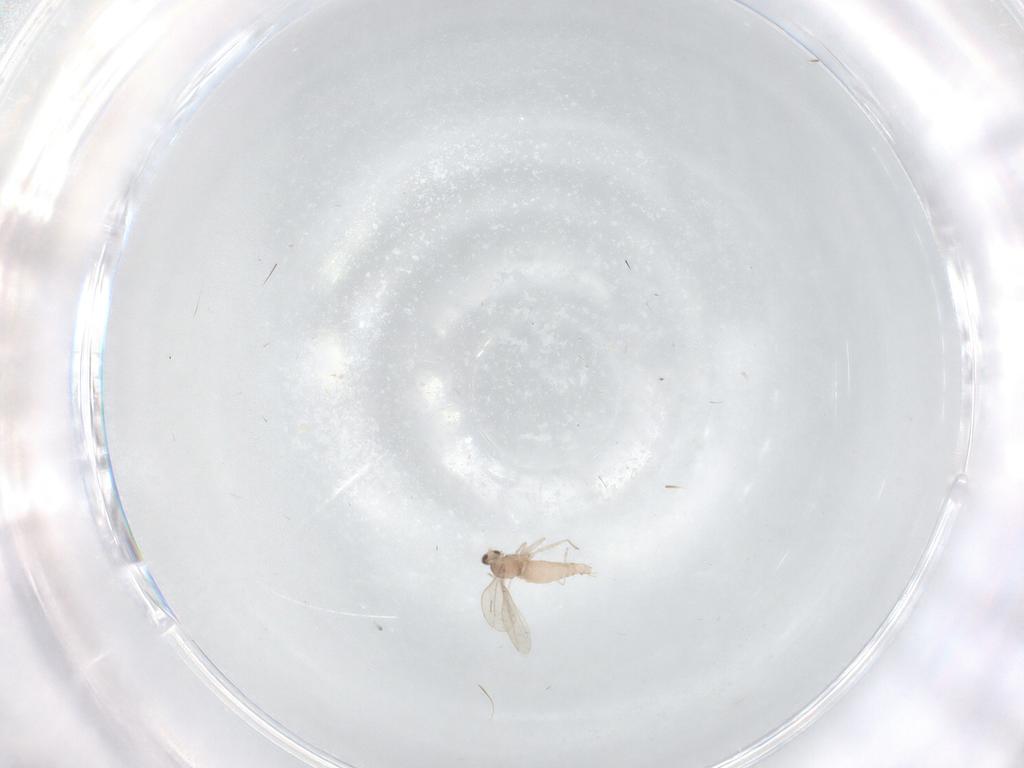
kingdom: Animalia
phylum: Arthropoda
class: Insecta
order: Diptera
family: Cecidomyiidae
